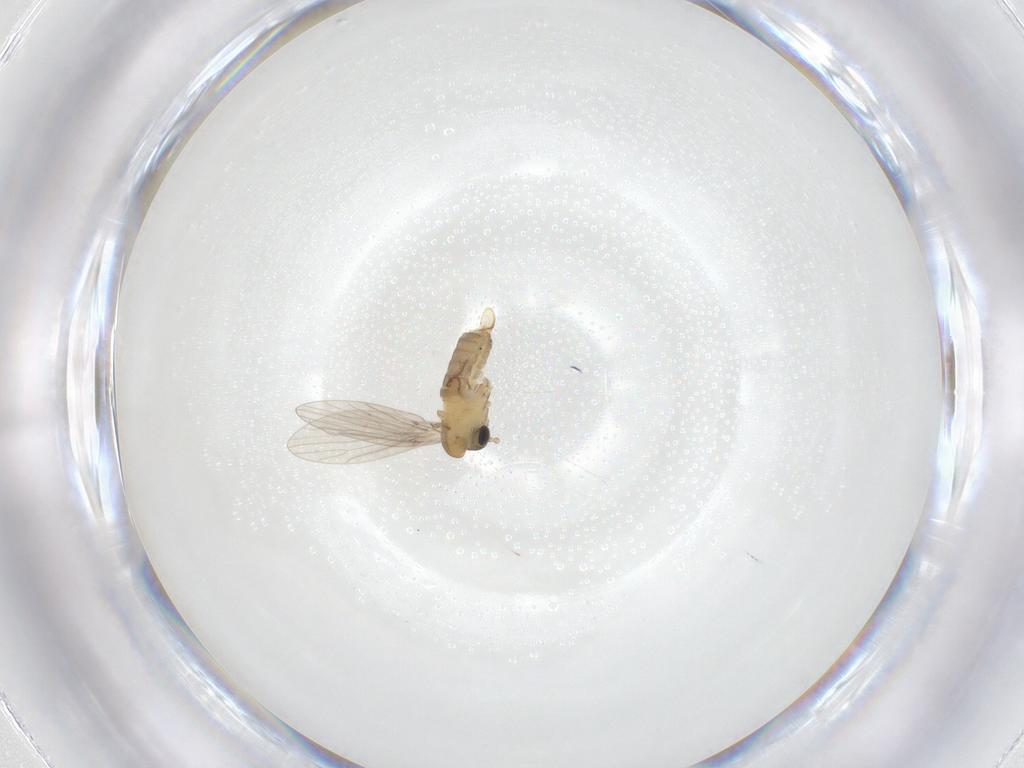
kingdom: Animalia
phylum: Arthropoda
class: Insecta
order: Diptera
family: Psychodidae
